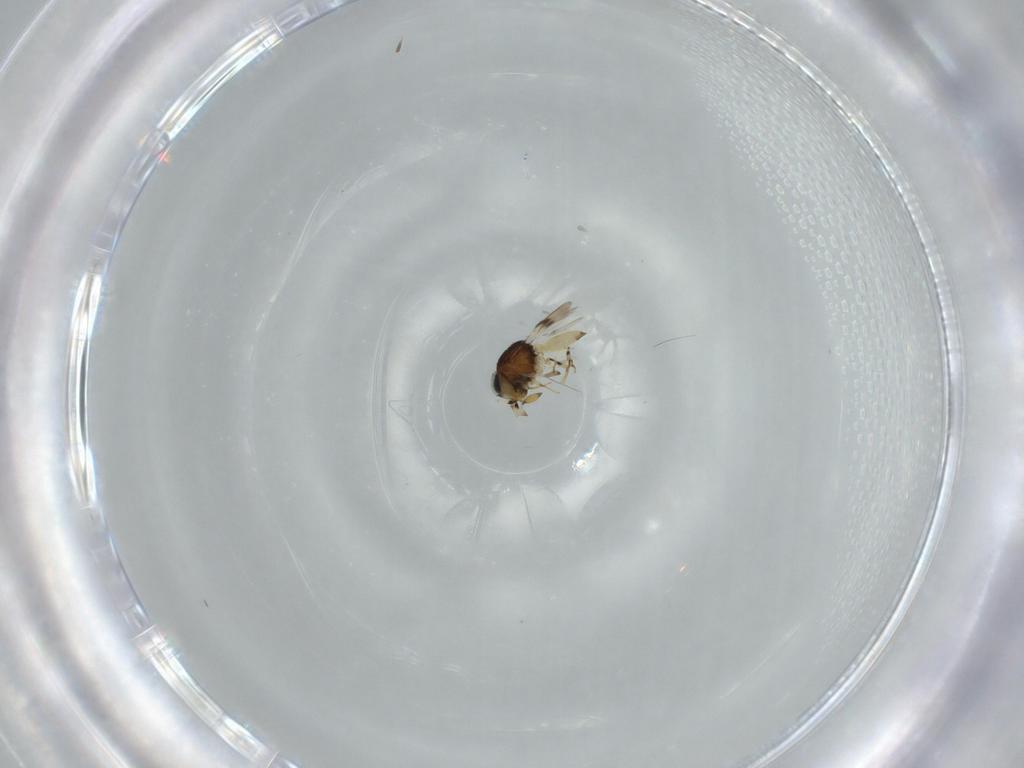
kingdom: Animalia
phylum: Arthropoda
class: Insecta
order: Hymenoptera
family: Scelionidae
